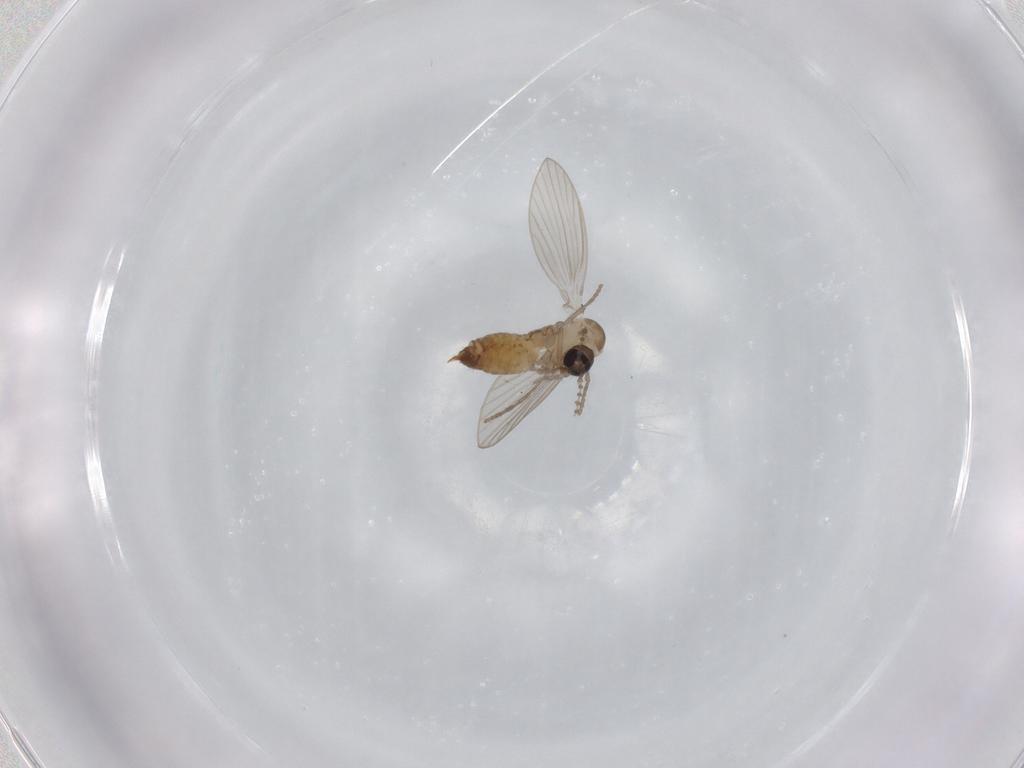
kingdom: Animalia
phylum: Arthropoda
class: Insecta
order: Diptera
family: Psychodidae
